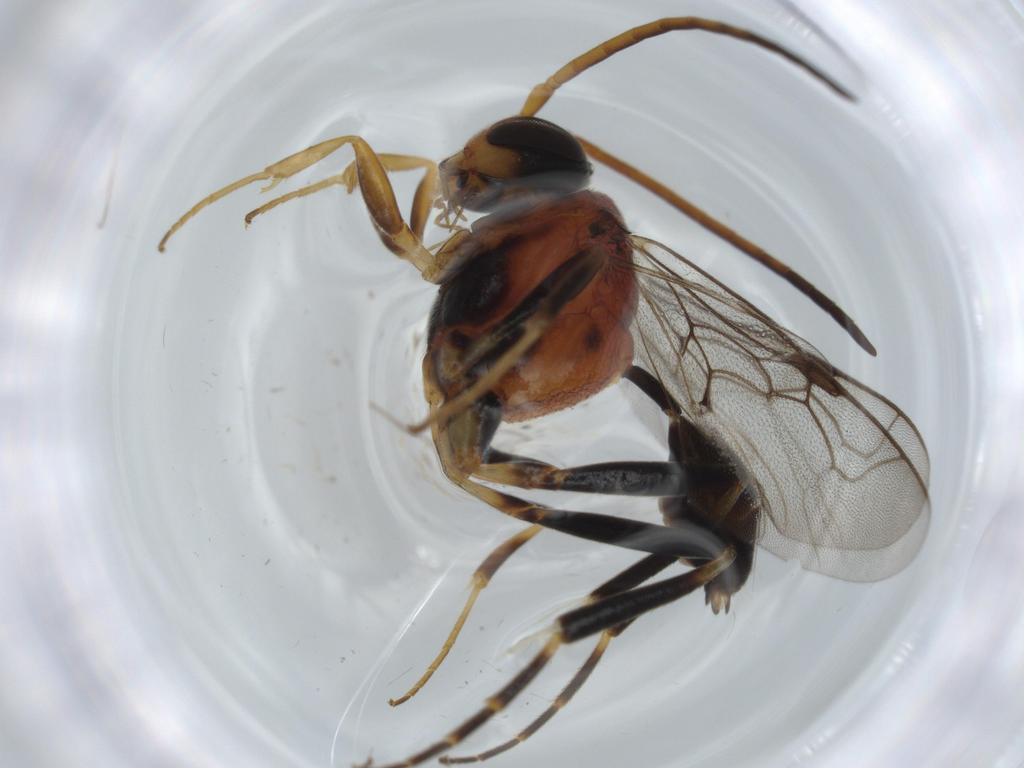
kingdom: Animalia
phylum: Arthropoda
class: Insecta
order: Hymenoptera
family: Evaniidae
